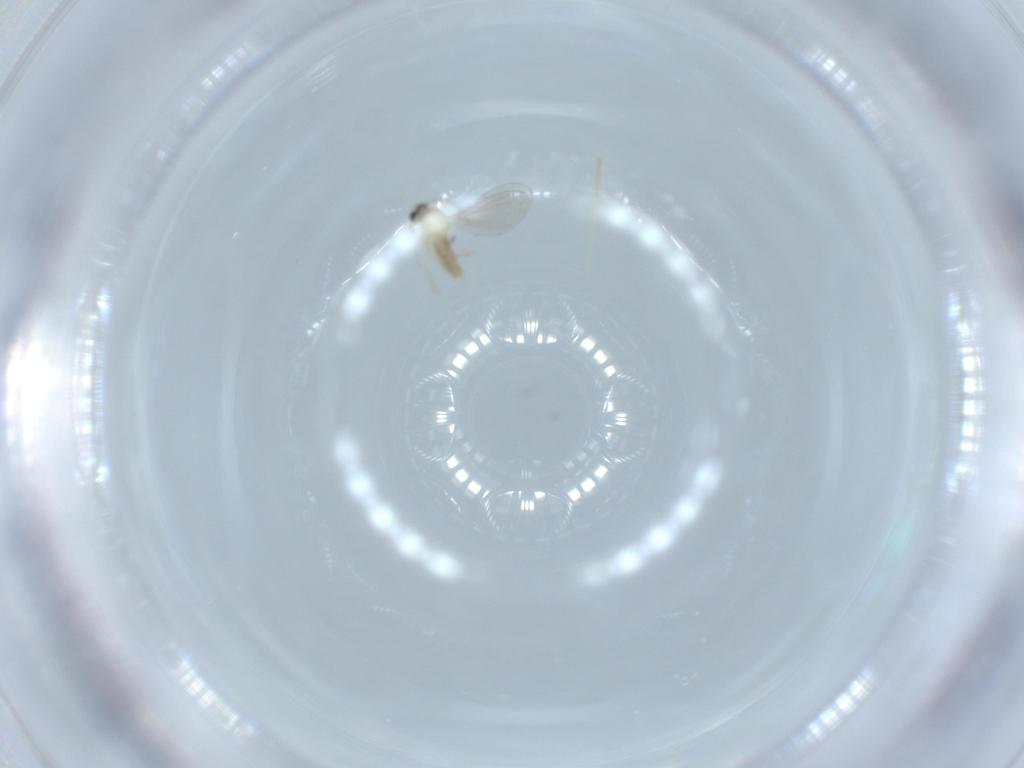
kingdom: Animalia
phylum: Arthropoda
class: Insecta
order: Diptera
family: Cecidomyiidae
